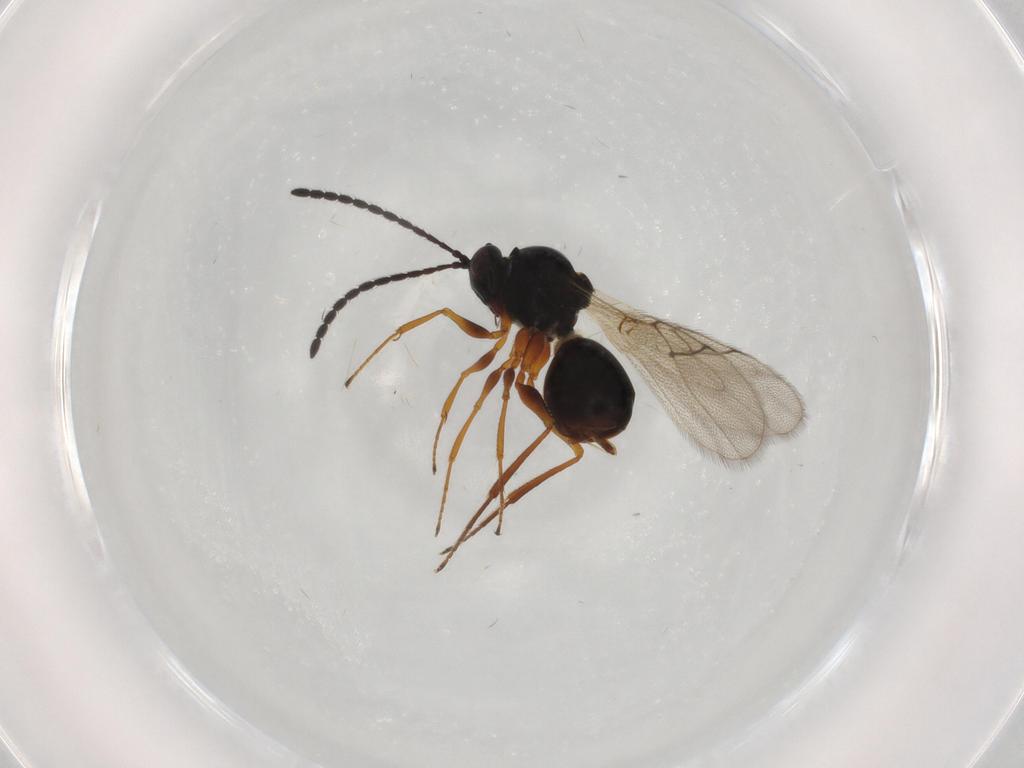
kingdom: Animalia
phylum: Arthropoda
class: Insecta
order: Hymenoptera
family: Figitidae
